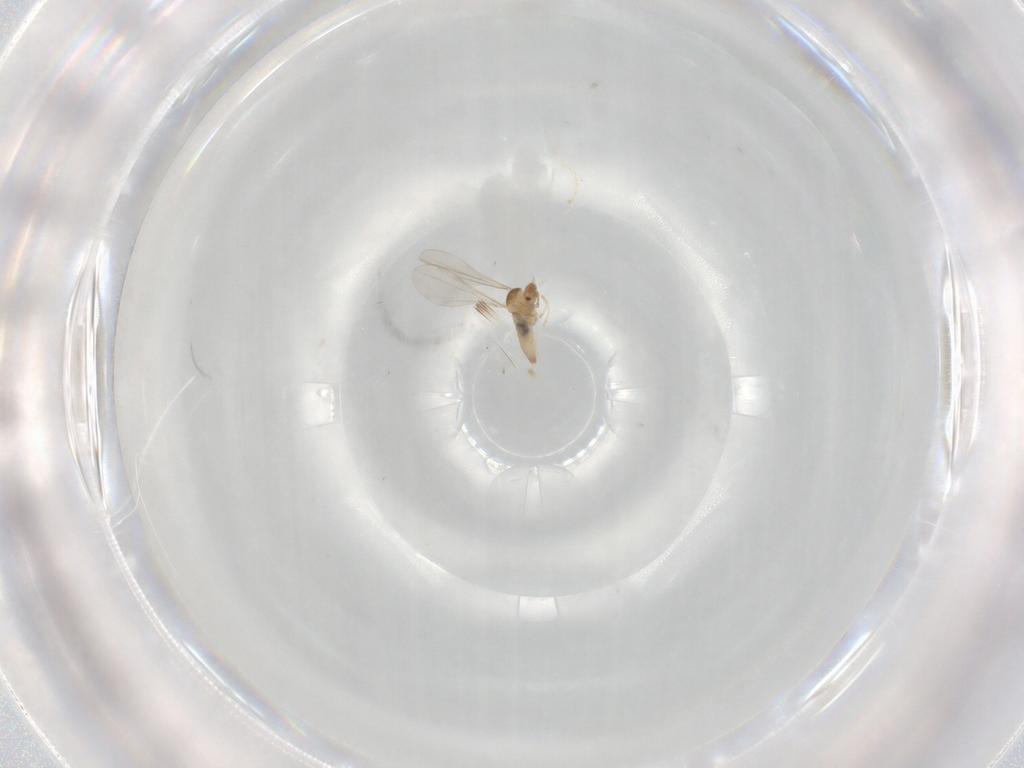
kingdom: Animalia
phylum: Arthropoda
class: Insecta
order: Diptera
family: Cecidomyiidae
